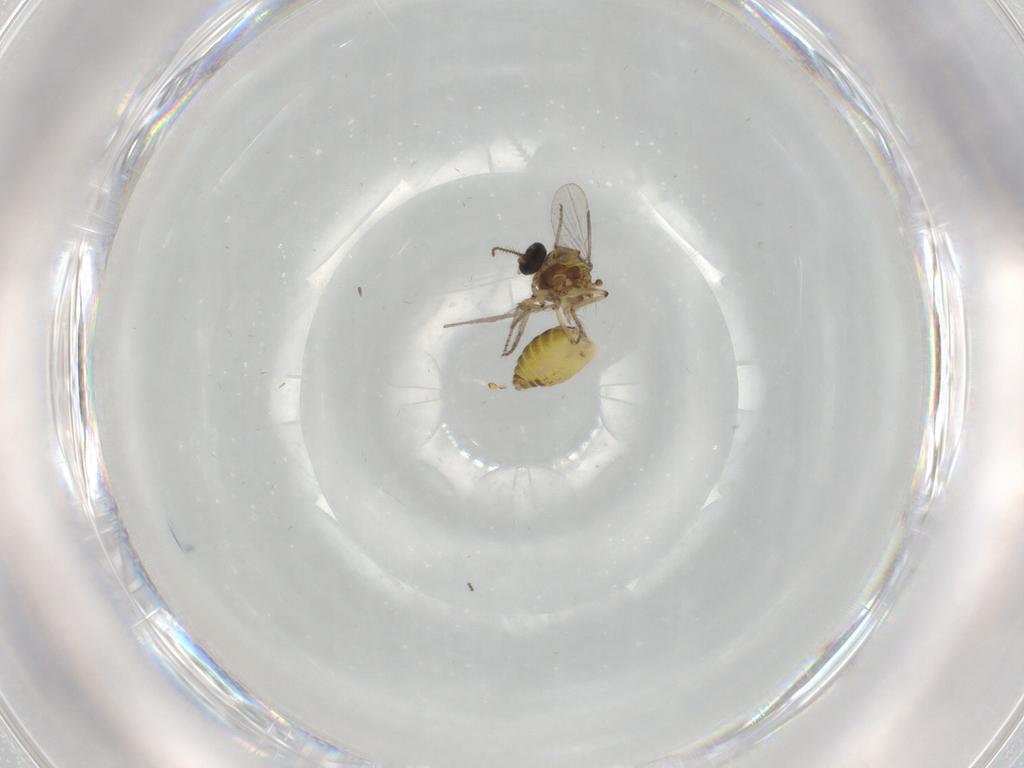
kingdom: Animalia
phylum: Arthropoda
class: Insecta
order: Diptera
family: Ceratopogonidae
